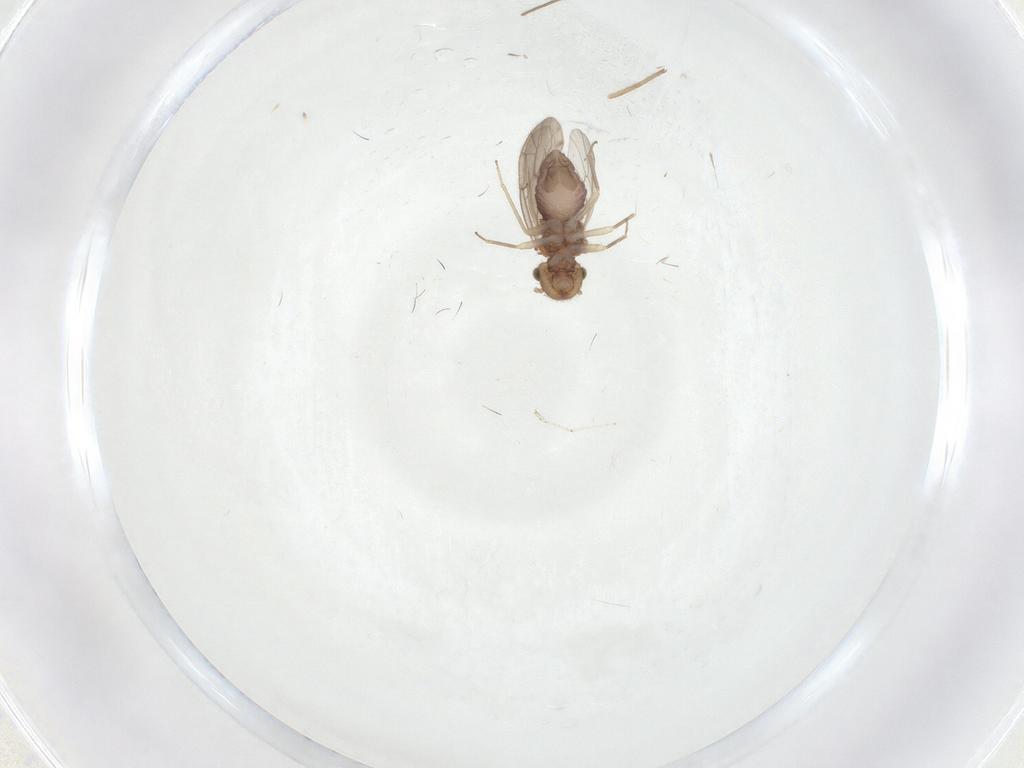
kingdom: Animalia
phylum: Arthropoda
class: Insecta
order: Psocodea
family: Ectopsocidae
